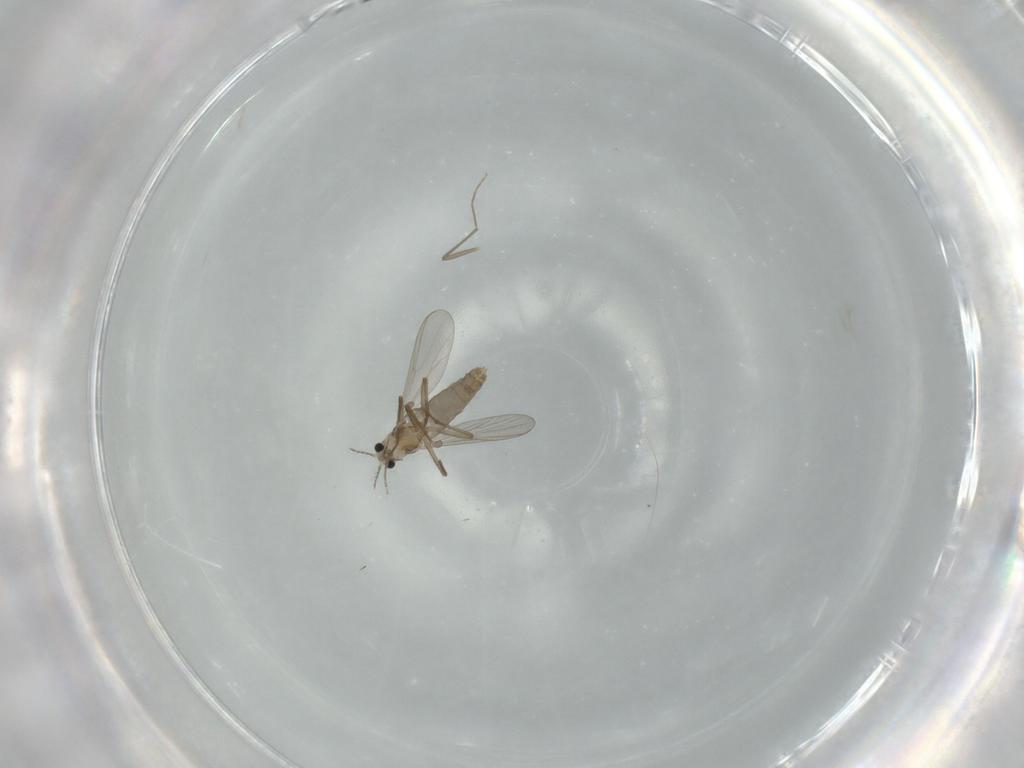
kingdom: Animalia
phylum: Arthropoda
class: Insecta
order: Diptera
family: Chironomidae
